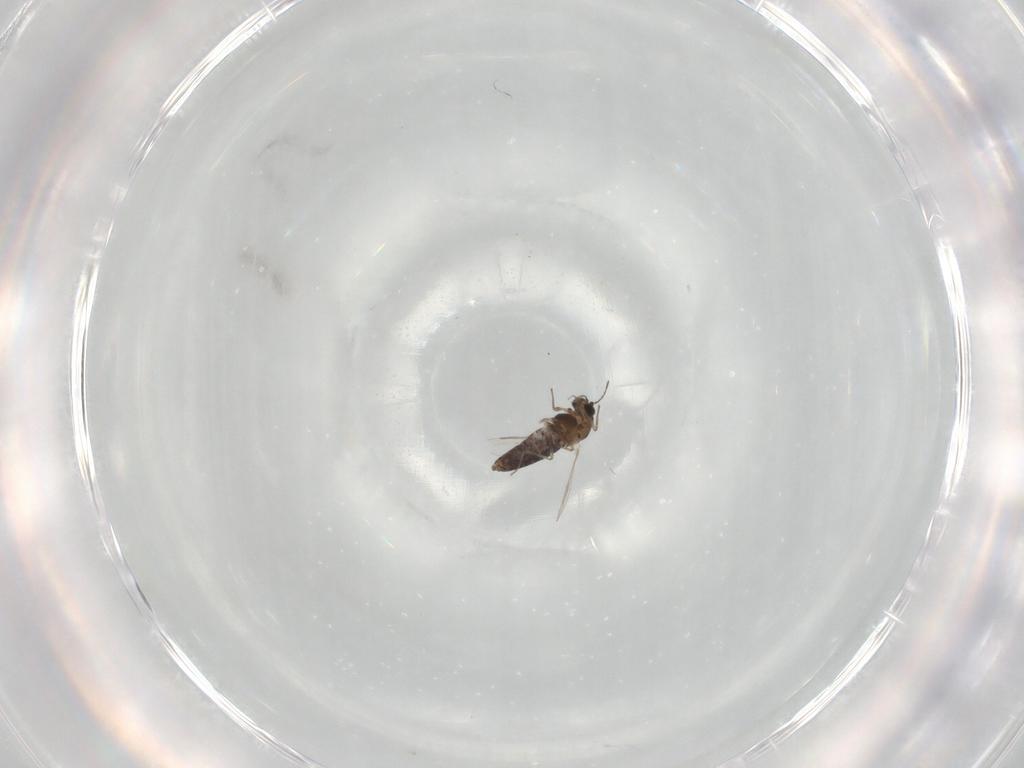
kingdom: Animalia
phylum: Arthropoda
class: Insecta
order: Diptera
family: Chironomidae
